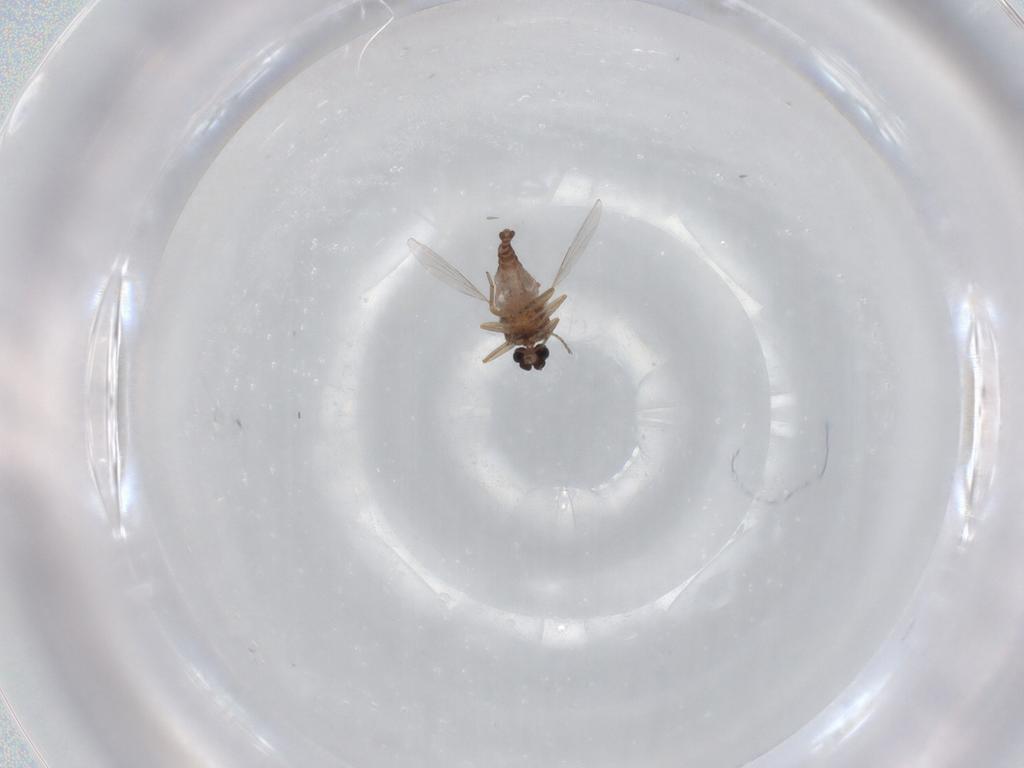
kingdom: Animalia
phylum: Arthropoda
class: Insecta
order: Diptera
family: Ceratopogonidae
